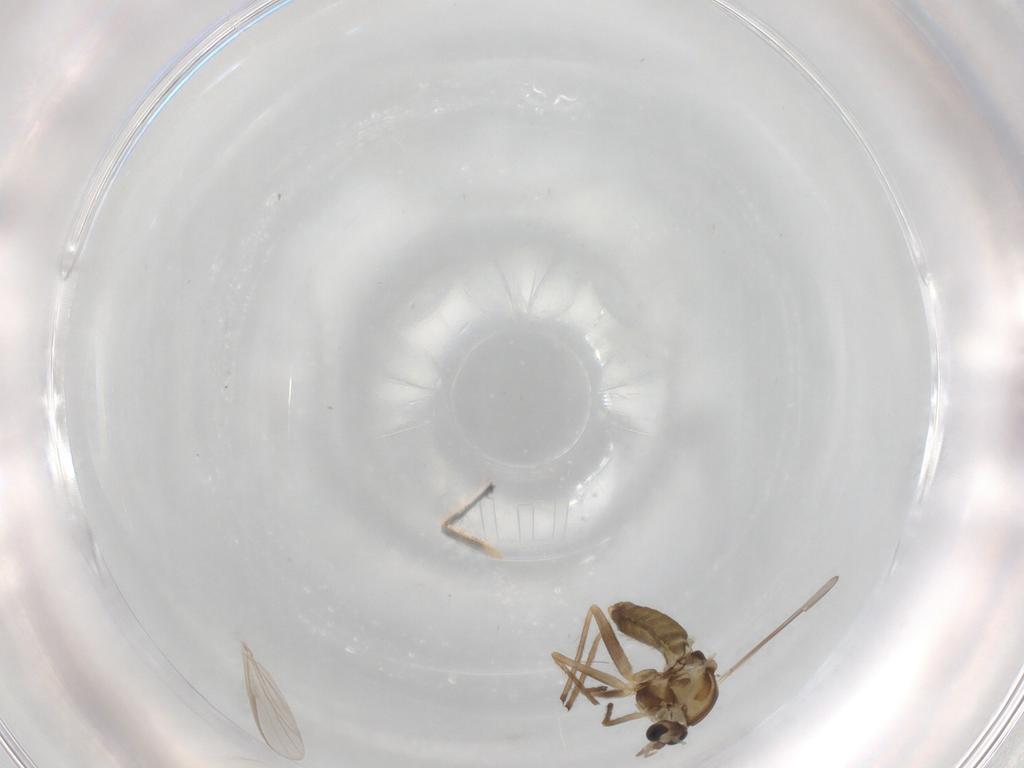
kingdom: Animalia
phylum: Arthropoda
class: Insecta
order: Diptera
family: Chironomidae
